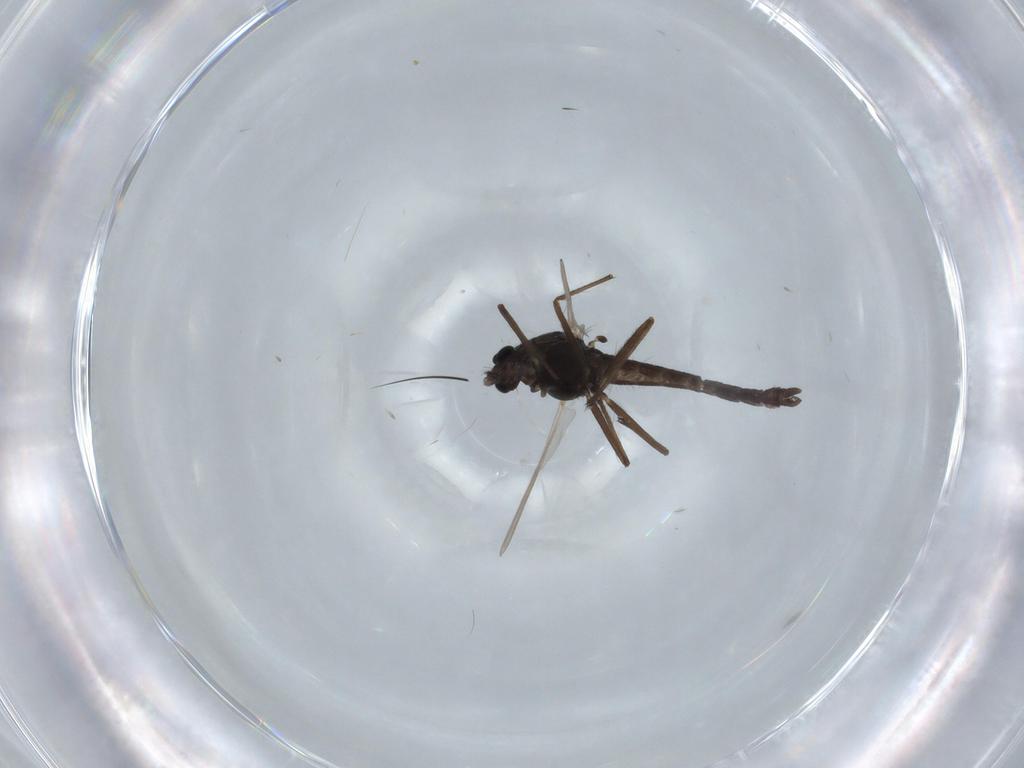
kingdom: Animalia
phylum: Arthropoda
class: Insecta
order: Diptera
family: Chironomidae
